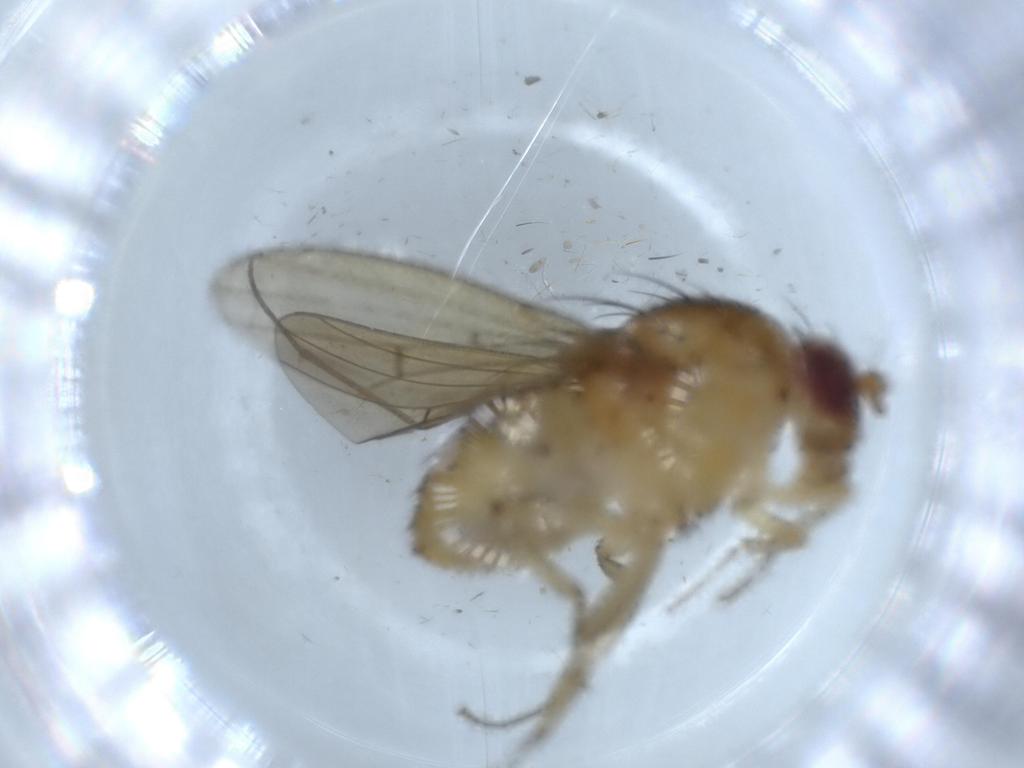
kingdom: Animalia
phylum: Arthropoda
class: Insecta
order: Diptera
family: Sciaridae
